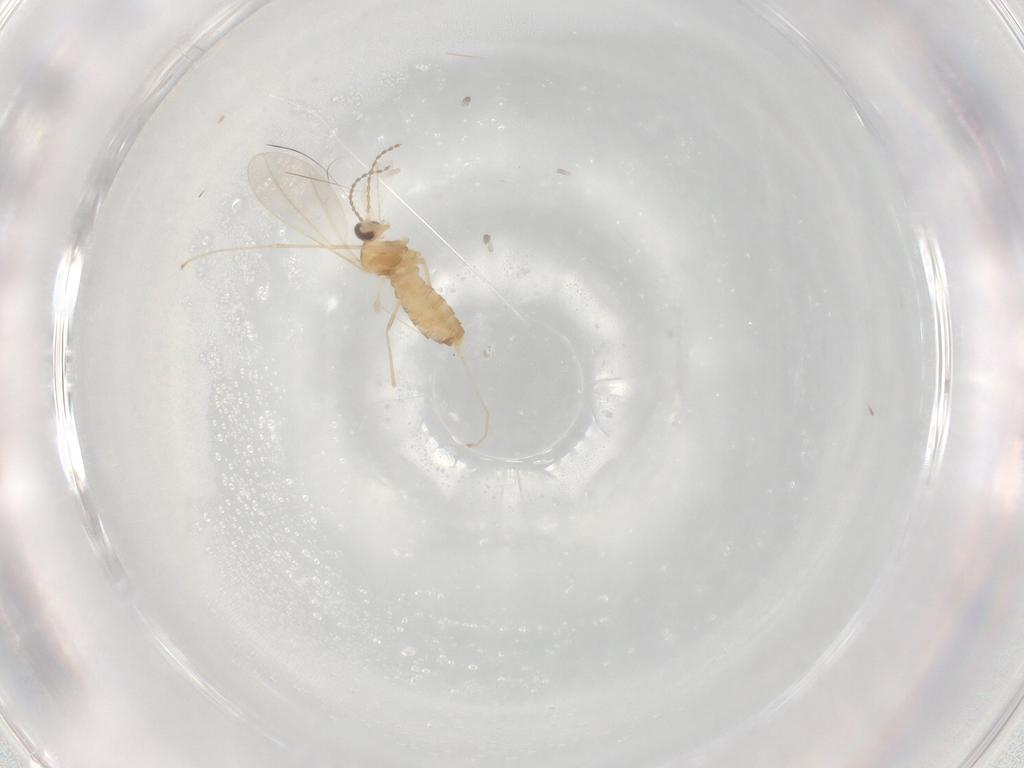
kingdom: Animalia
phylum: Arthropoda
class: Insecta
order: Diptera
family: Cecidomyiidae
